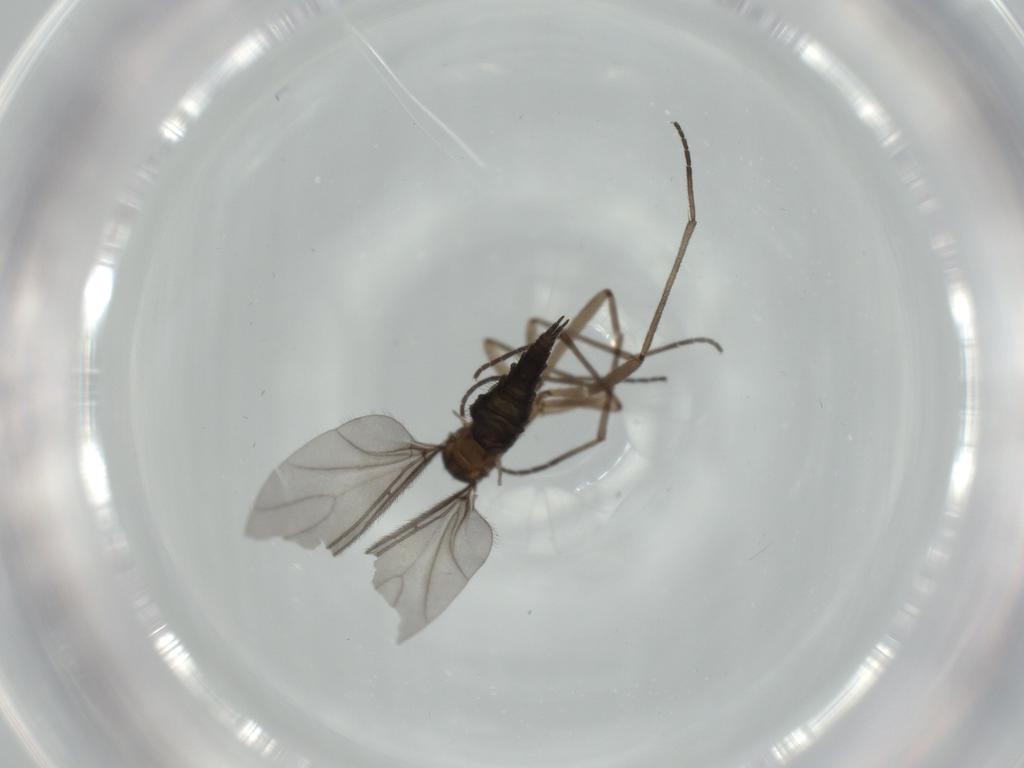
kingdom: Animalia
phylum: Arthropoda
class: Insecta
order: Diptera
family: Sciaridae
